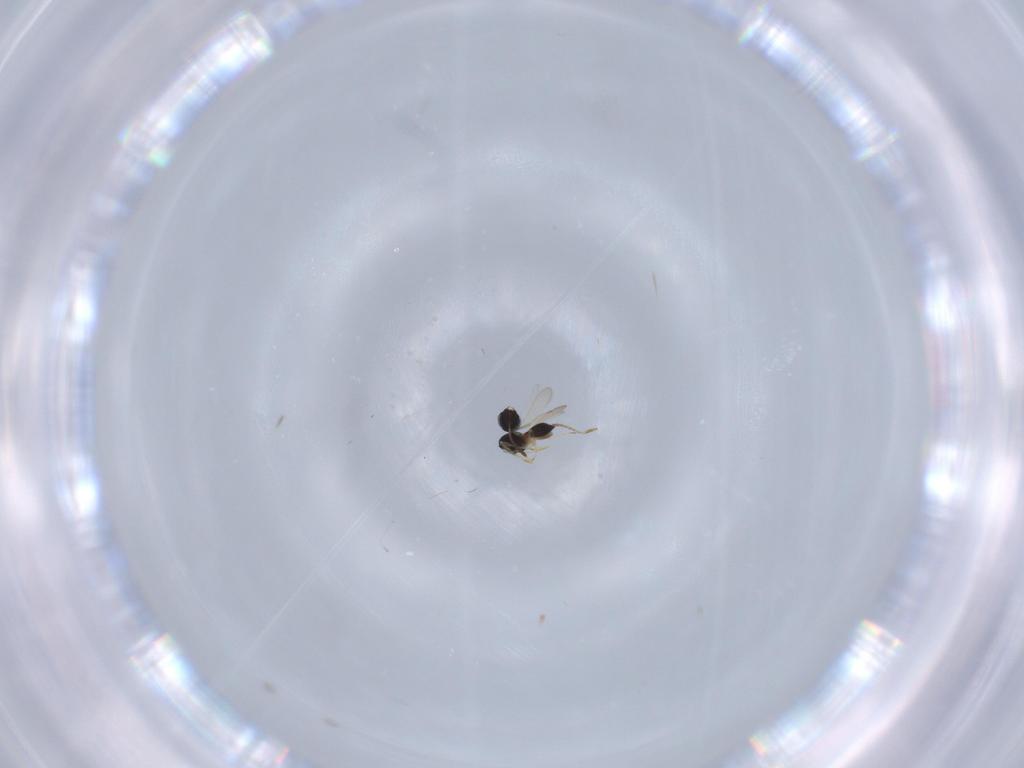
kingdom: Animalia
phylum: Arthropoda
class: Insecta
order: Hymenoptera
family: Scelionidae
